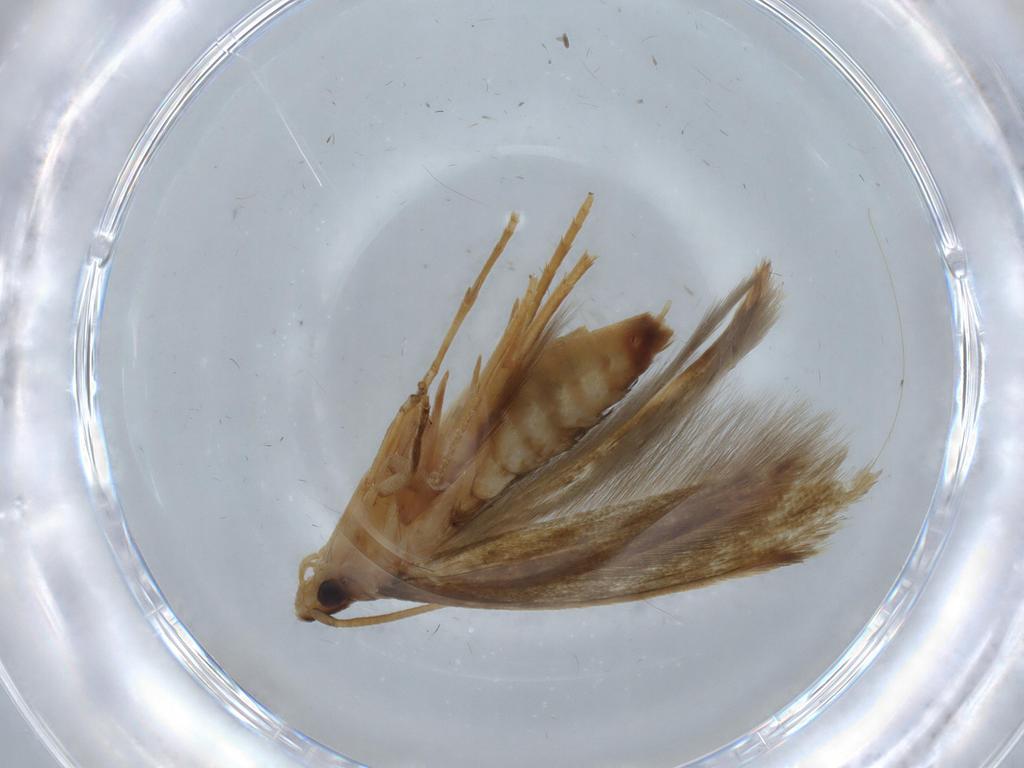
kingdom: Animalia
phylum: Arthropoda
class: Insecta
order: Lepidoptera
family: Tineidae
